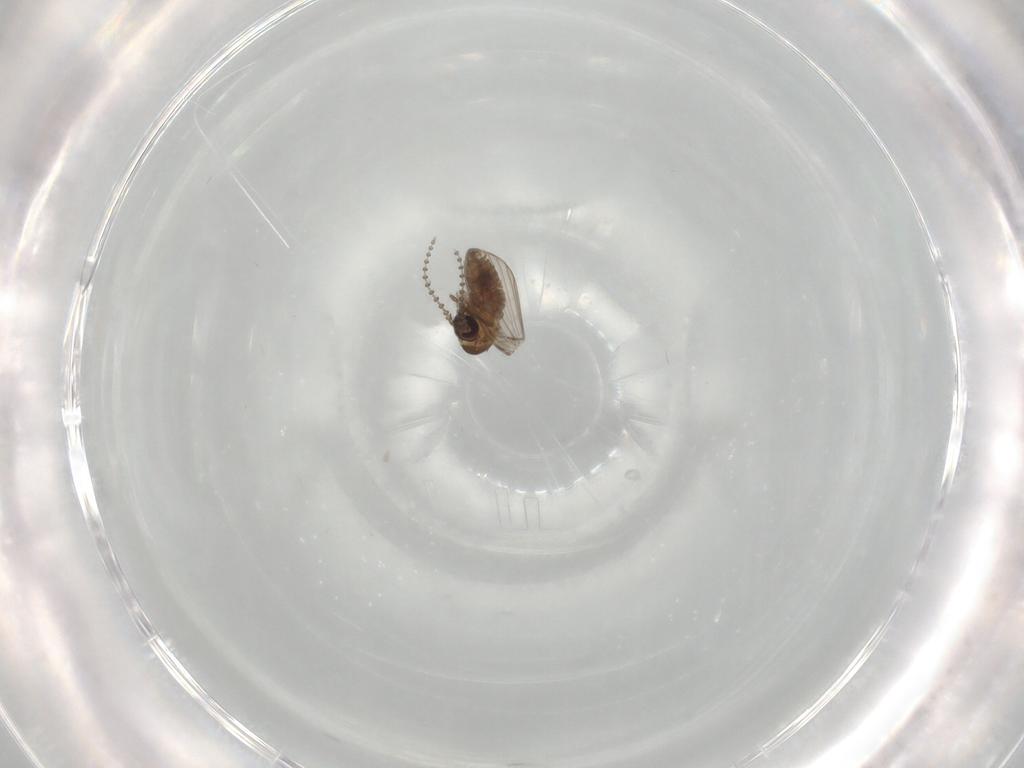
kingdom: Animalia
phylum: Arthropoda
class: Insecta
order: Diptera
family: Psychodidae
